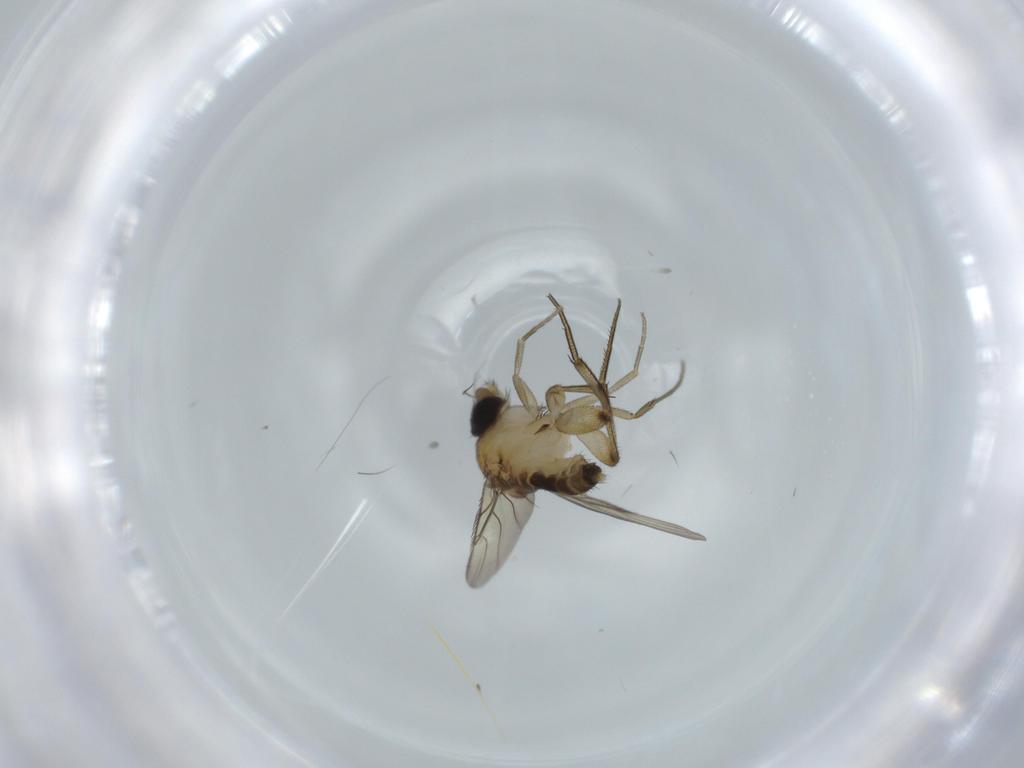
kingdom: Animalia
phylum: Arthropoda
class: Insecta
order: Diptera
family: Phoridae
